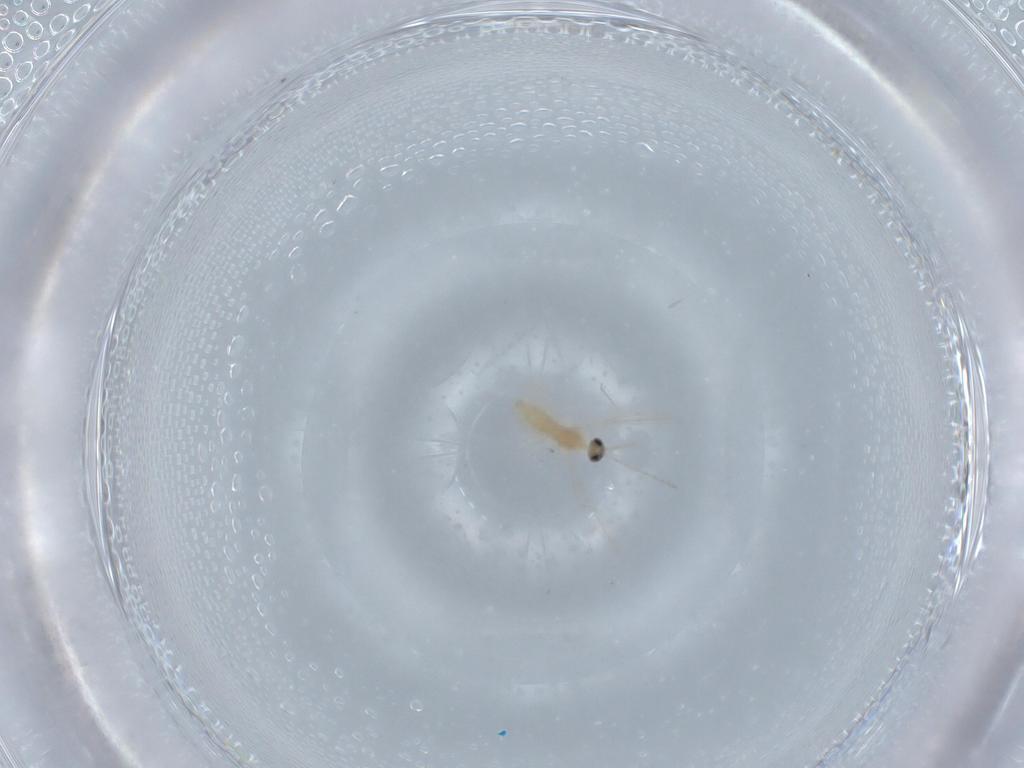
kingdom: Animalia
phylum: Arthropoda
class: Insecta
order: Diptera
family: Cecidomyiidae
